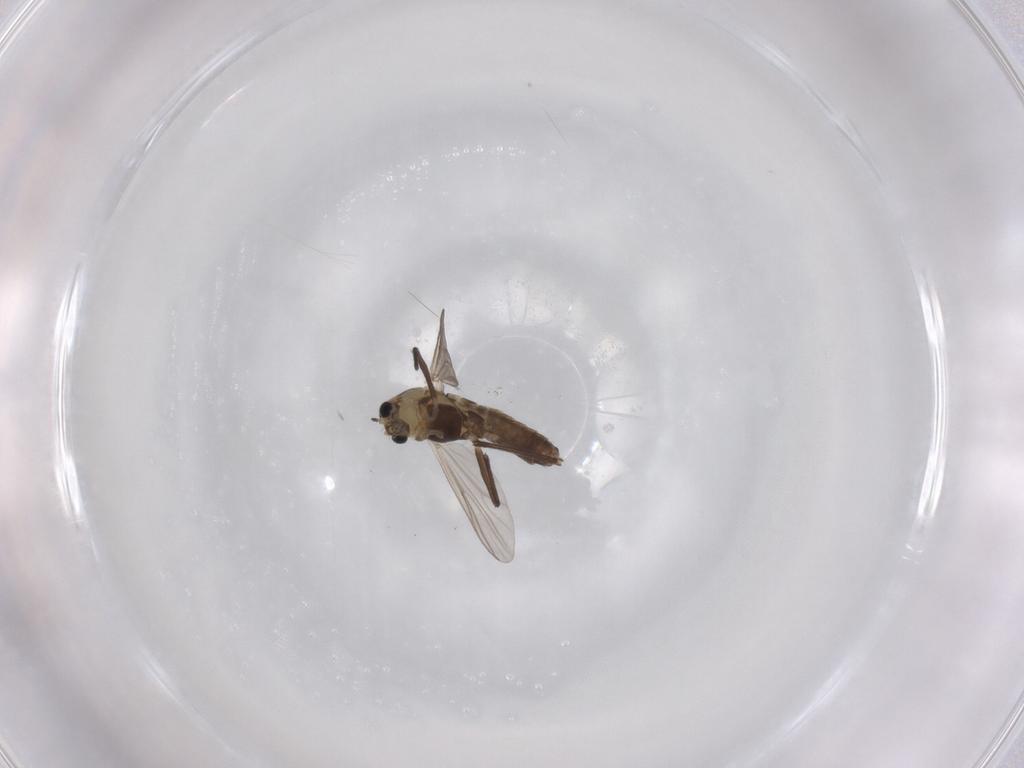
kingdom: Animalia
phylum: Arthropoda
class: Insecta
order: Diptera
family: Chironomidae
